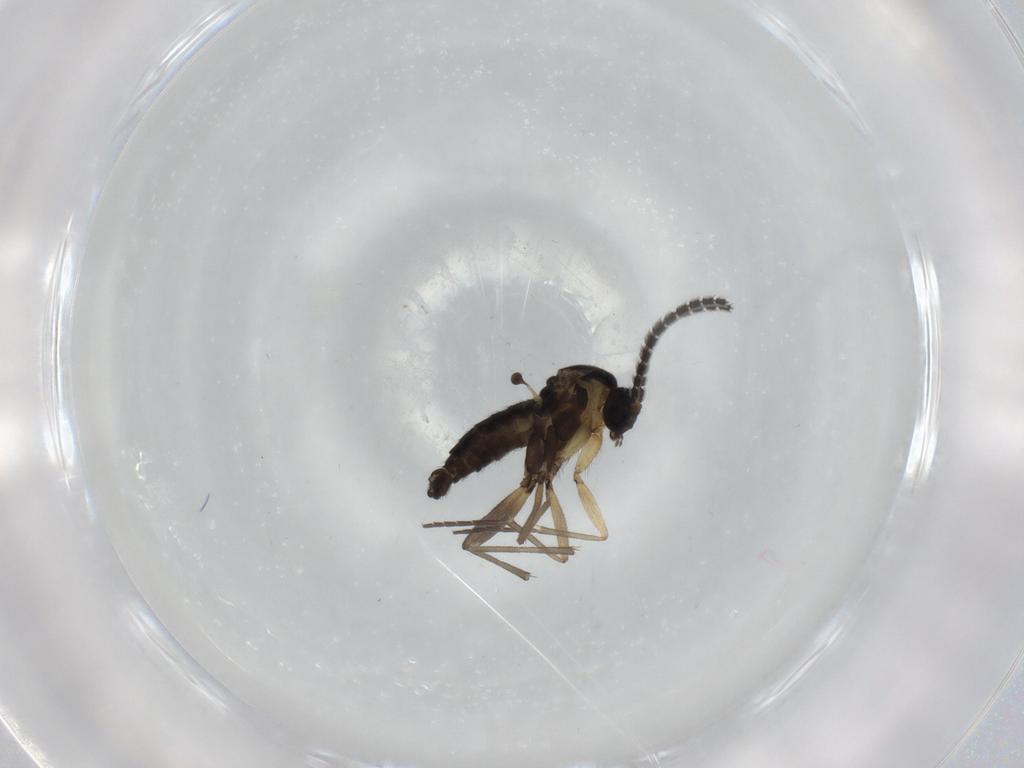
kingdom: Animalia
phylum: Arthropoda
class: Insecta
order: Diptera
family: Sciaridae
